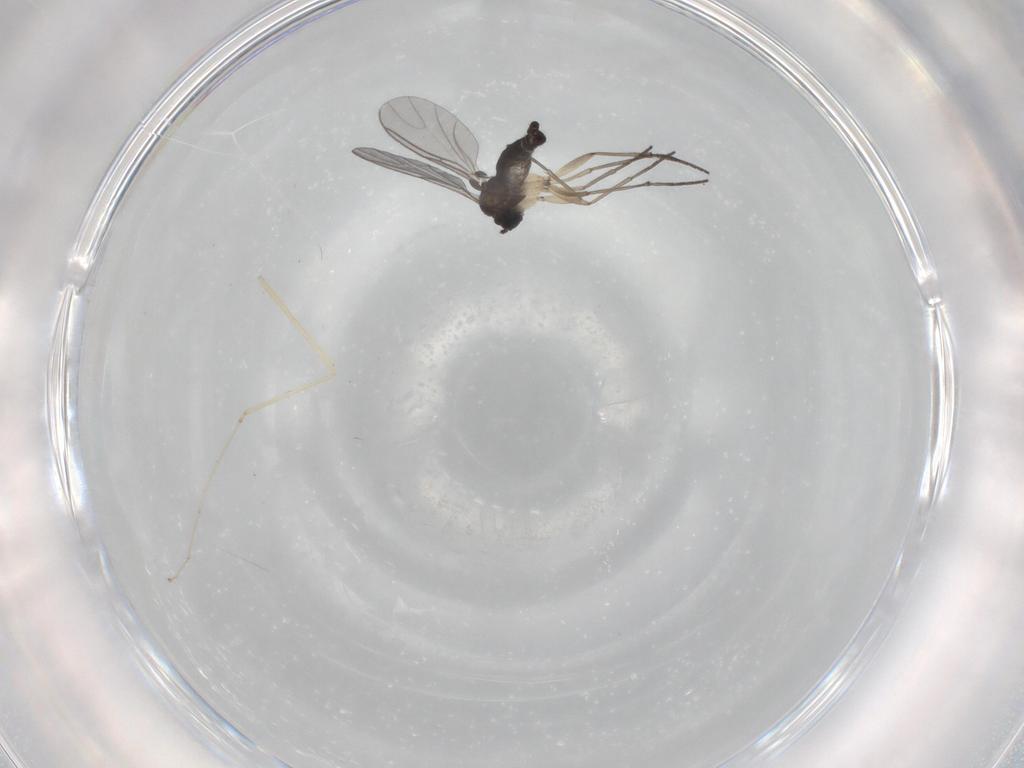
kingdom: Animalia
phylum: Arthropoda
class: Insecta
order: Diptera
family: Cecidomyiidae
